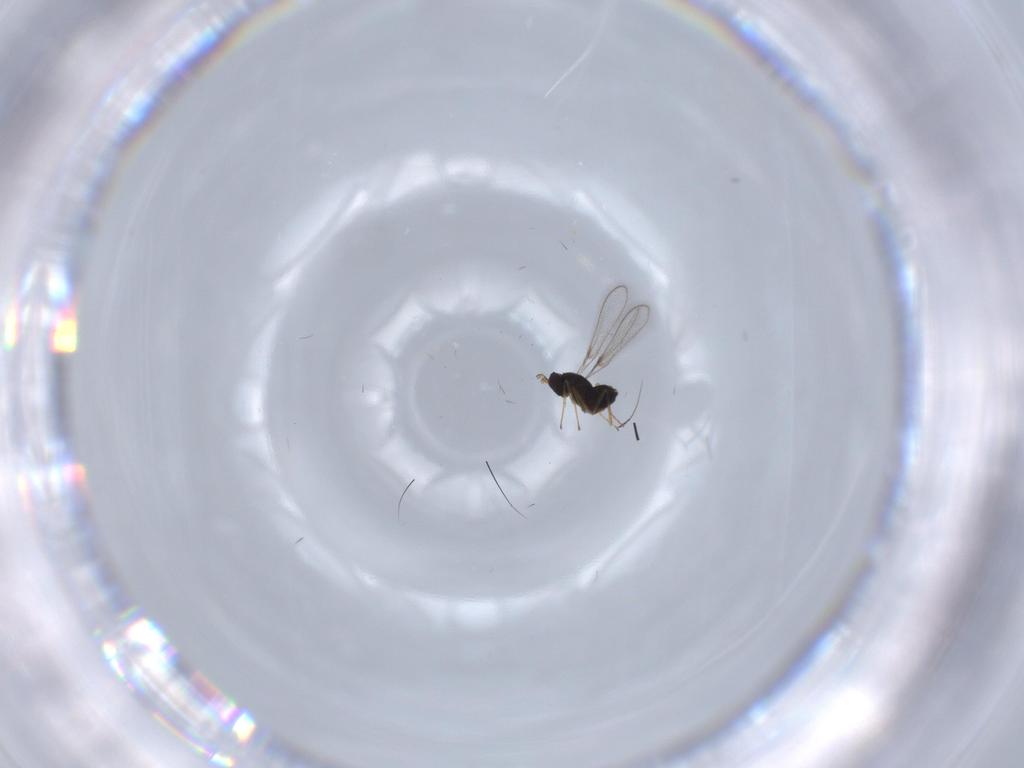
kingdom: Animalia
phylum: Arthropoda
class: Insecta
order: Hymenoptera
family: Mymaridae
